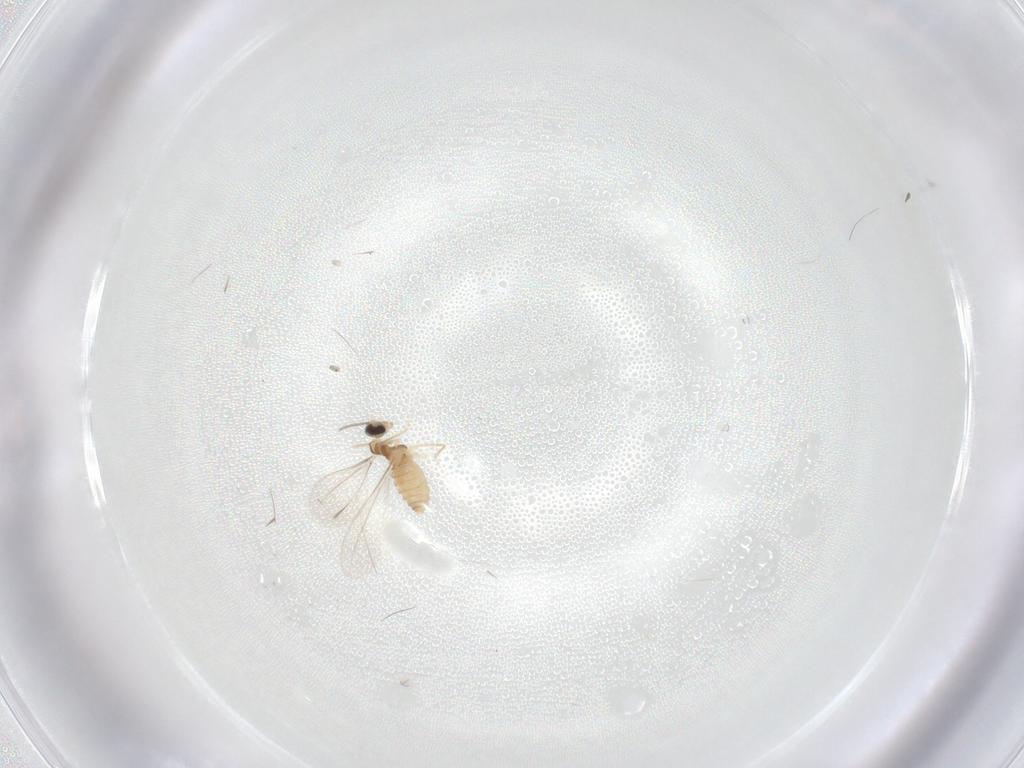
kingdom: Animalia
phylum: Arthropoda
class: Insecta
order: Diptera
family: Cecidomyiidae
